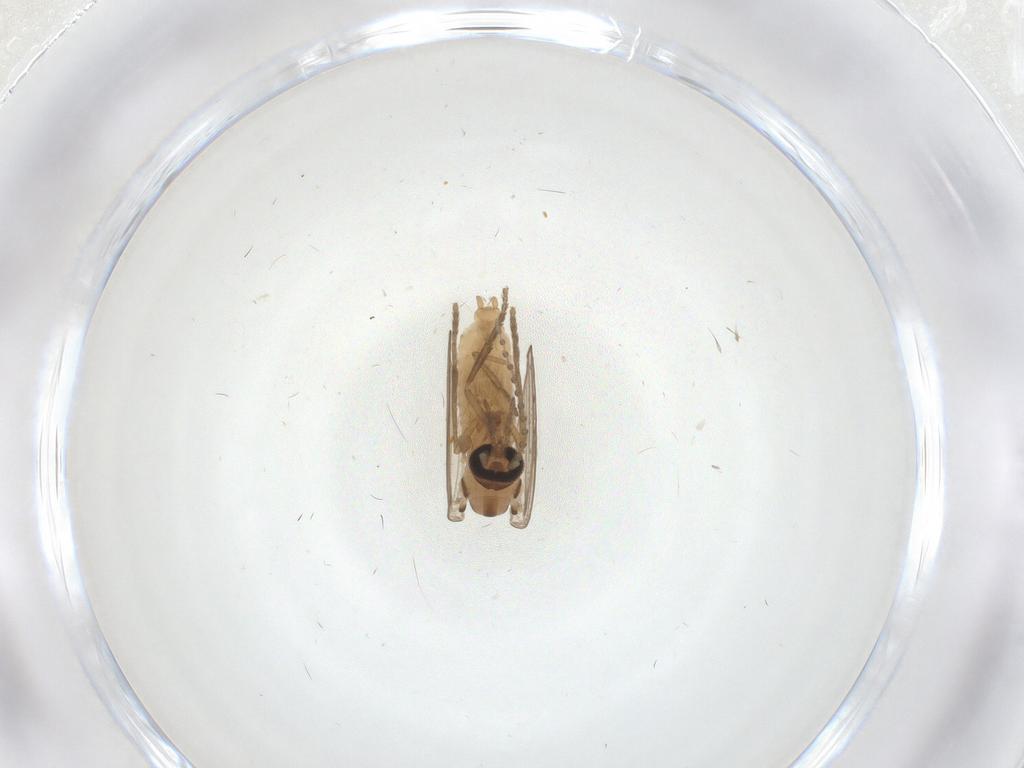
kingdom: Animalia
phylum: Arthropoda
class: Insecta
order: Diptera
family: Psychodidae
